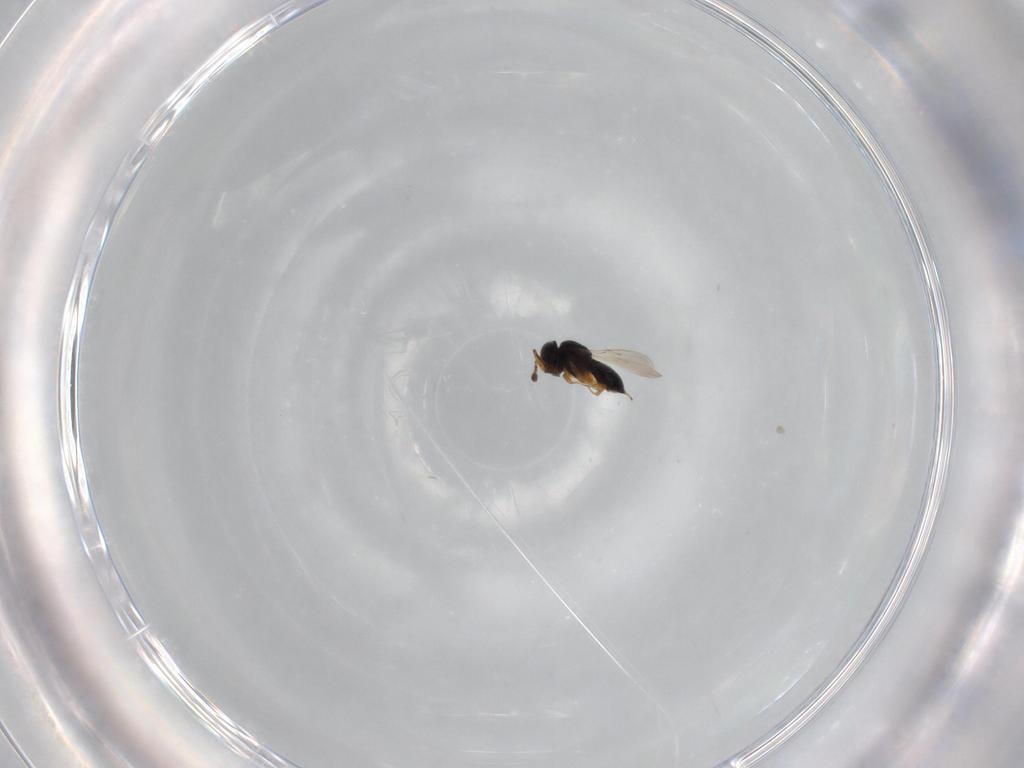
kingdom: Animalia
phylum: Arthropoda
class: Insecta
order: Hymenoptera
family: Scelionidae
